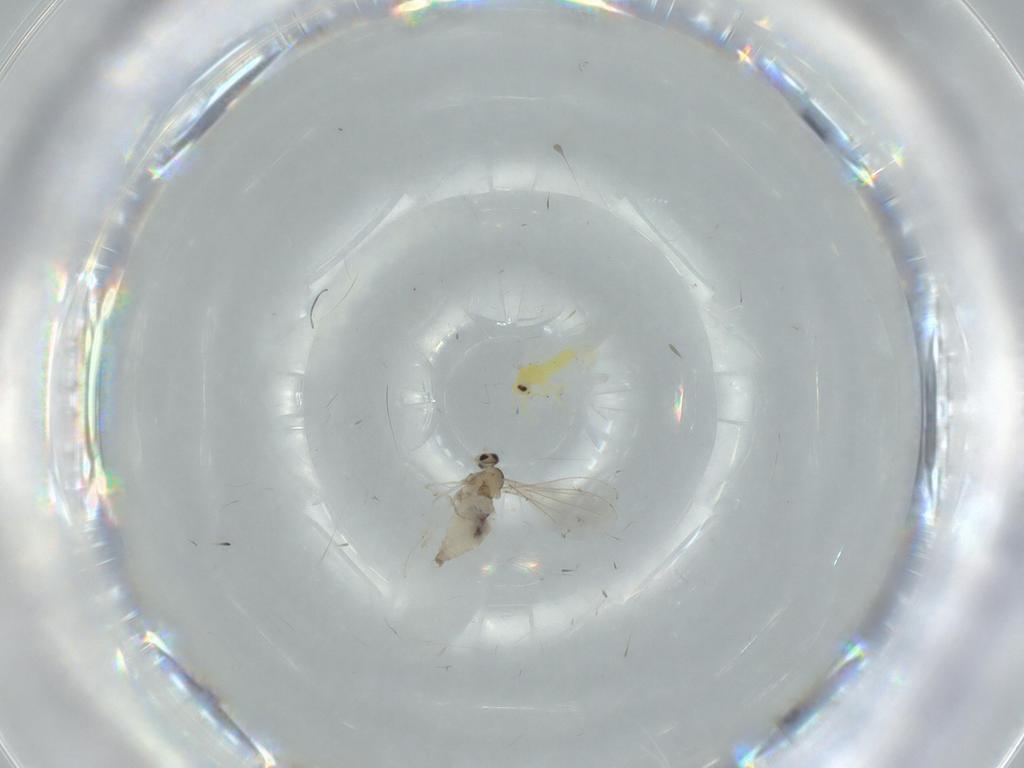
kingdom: Animalia
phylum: Arthropoda
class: Insecta
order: Diptera
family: Cecidomyiidae
